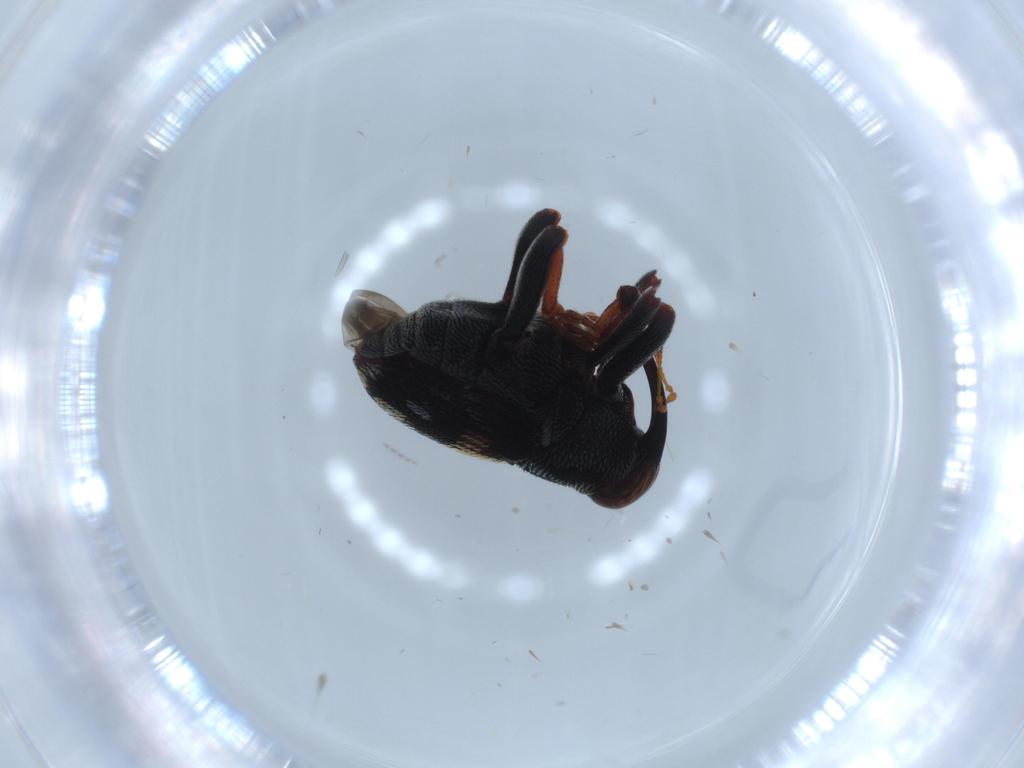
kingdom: Animalia
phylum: Arthropoda
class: Insecta
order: Coleoptera
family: Curculionidae
